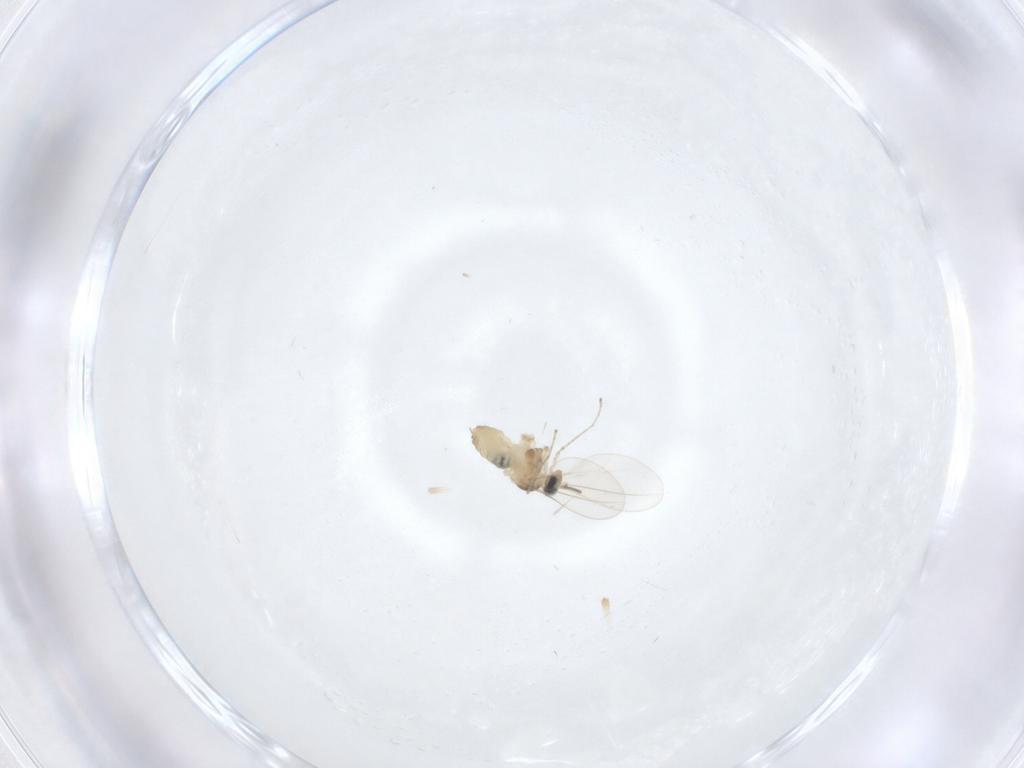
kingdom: Animalia
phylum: Arthropoda
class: Insecta
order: Diptera
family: Cecidomyiidae
